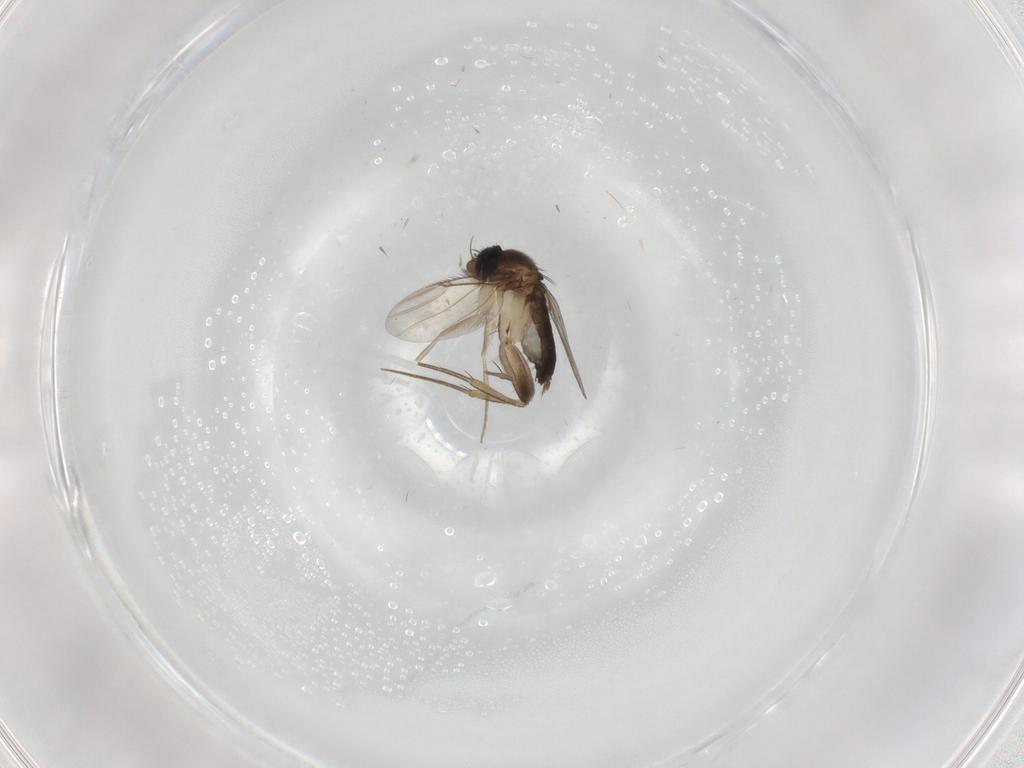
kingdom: Animalia
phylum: Arthropoda
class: Insecta
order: Diptera
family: Phoridae
